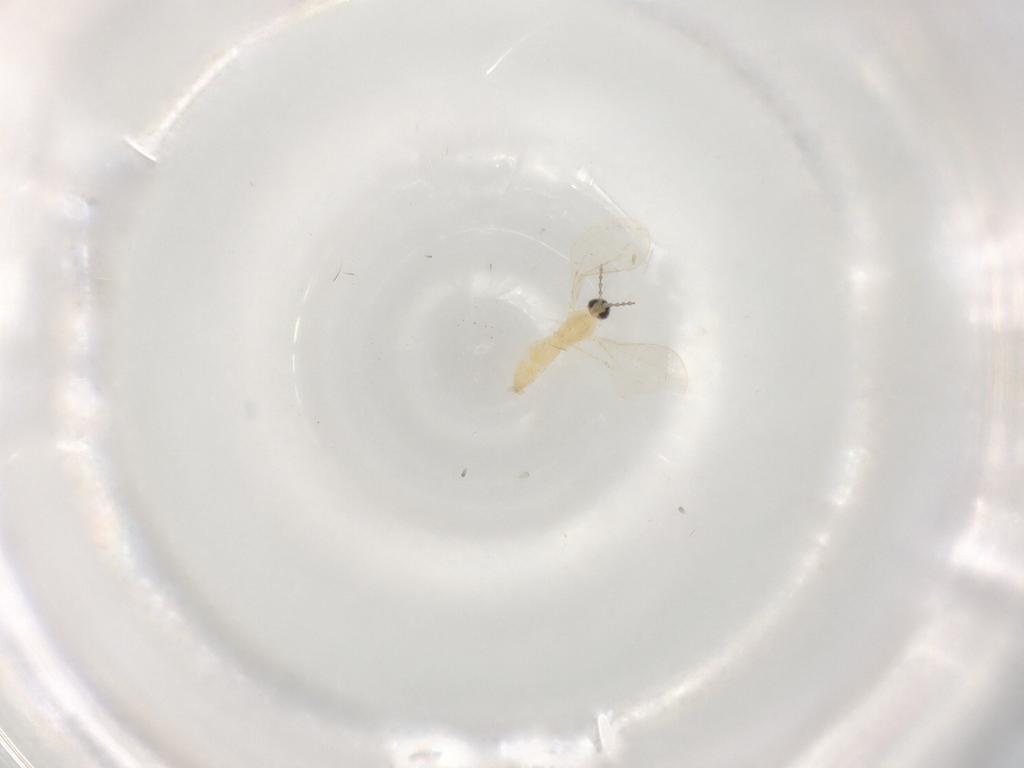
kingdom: Animalia
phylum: Arthropoda
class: Insecta
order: Diptera
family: Cecidomyiidae
